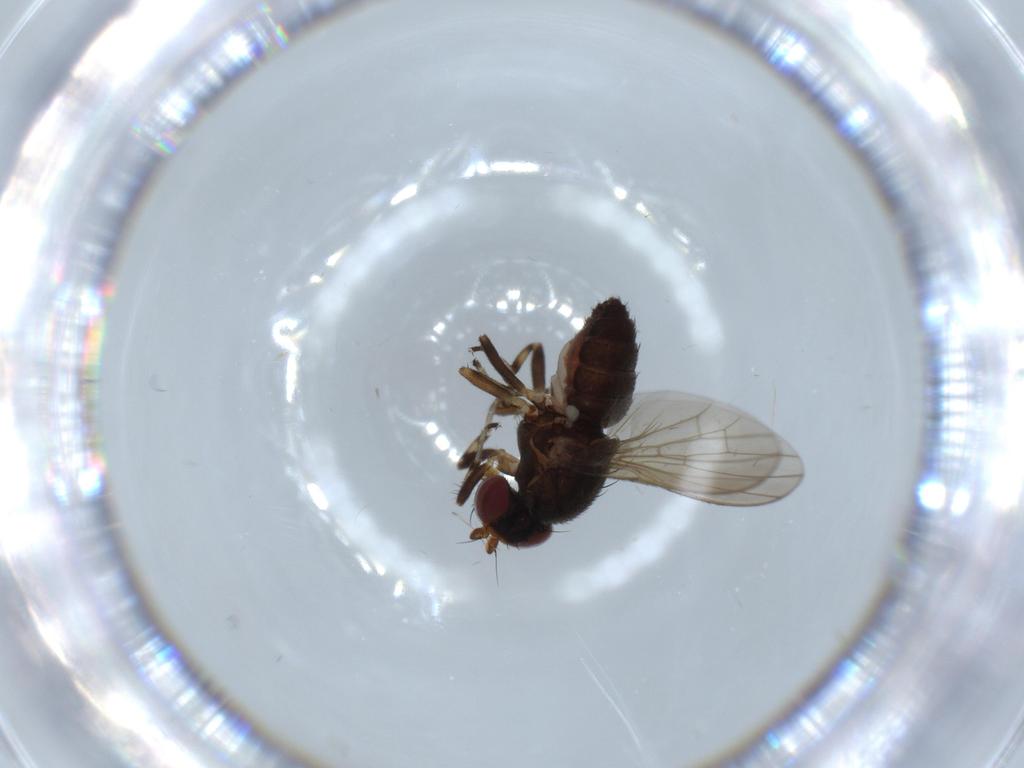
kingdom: Animalia
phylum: Arthropoda
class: Insecta
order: Diptera
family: Heleomyzidae
